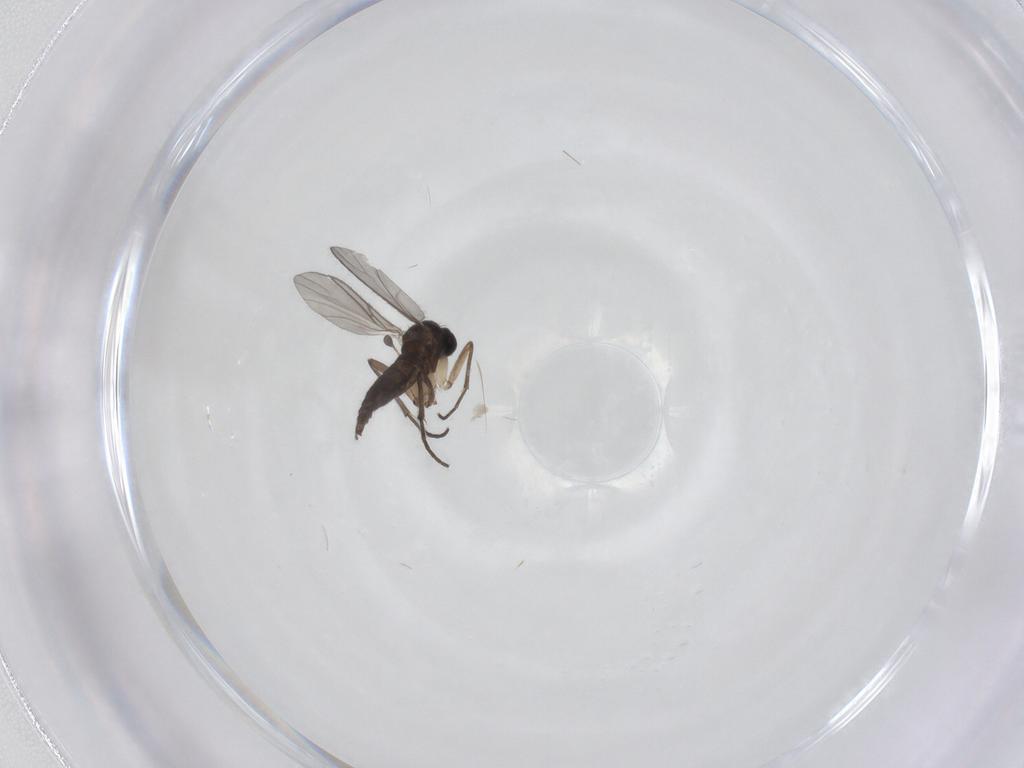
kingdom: Animalia
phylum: Arthropoda
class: Insecta
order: Diptera
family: Sciaridae
